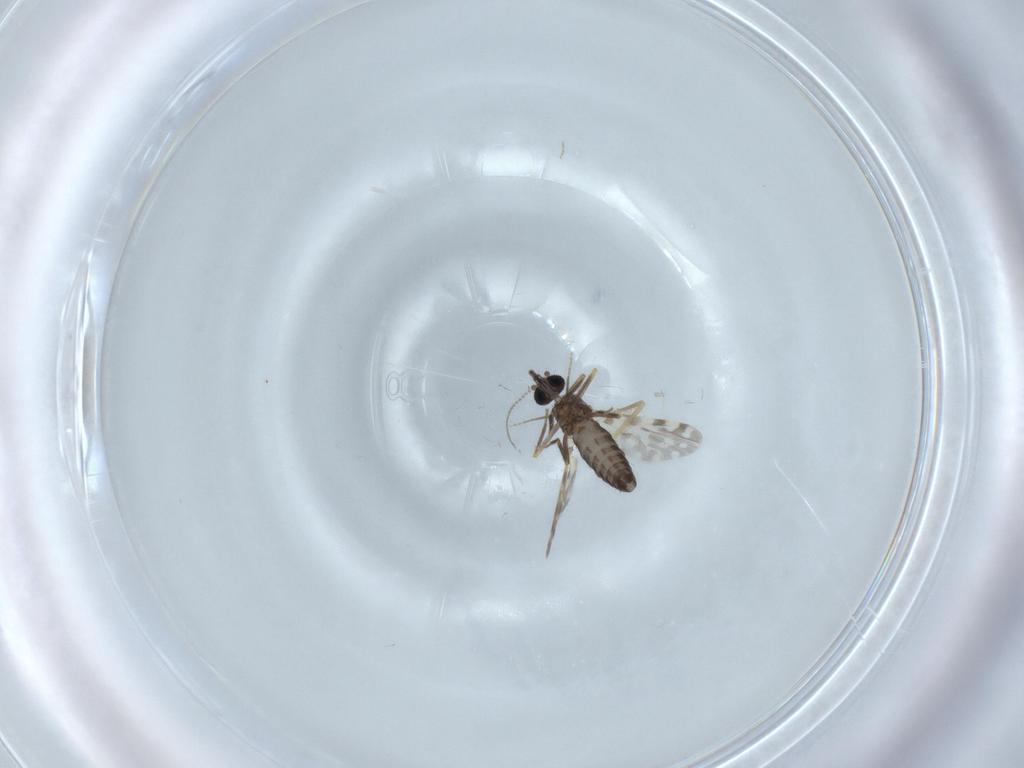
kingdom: Animalia
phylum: Arthropoda
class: Insecta
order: Diptera
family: Ceratopogonidae
